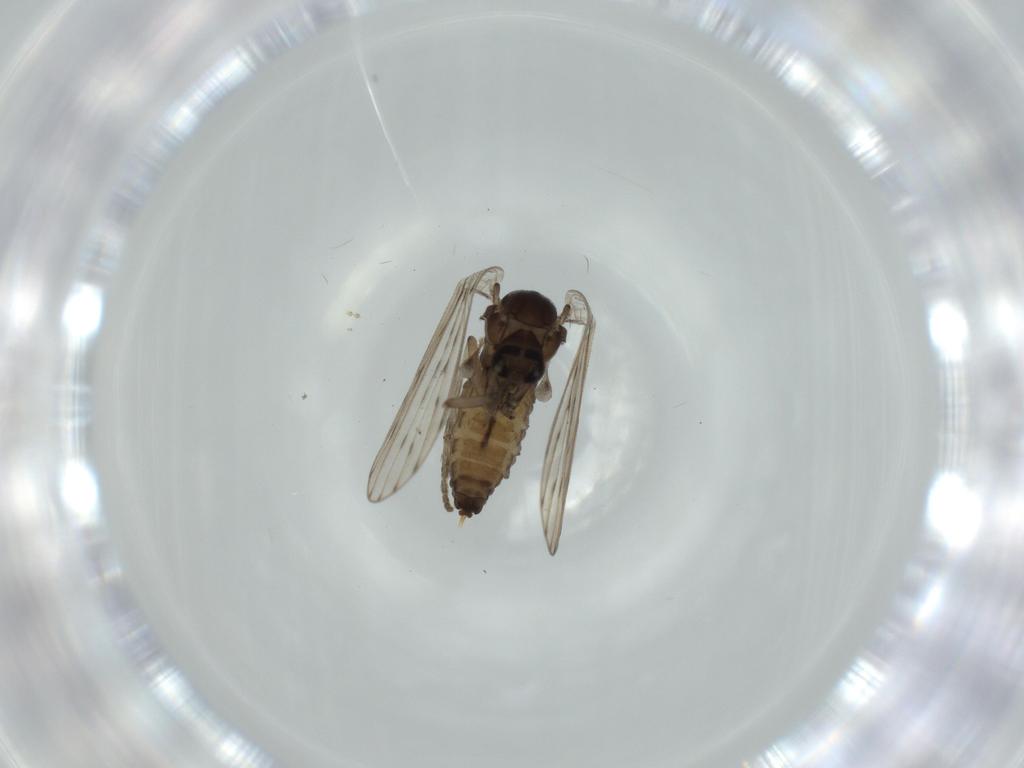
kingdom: Animalia
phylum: Arthropoda
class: Insecta
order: Diptera
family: Psychodidae
